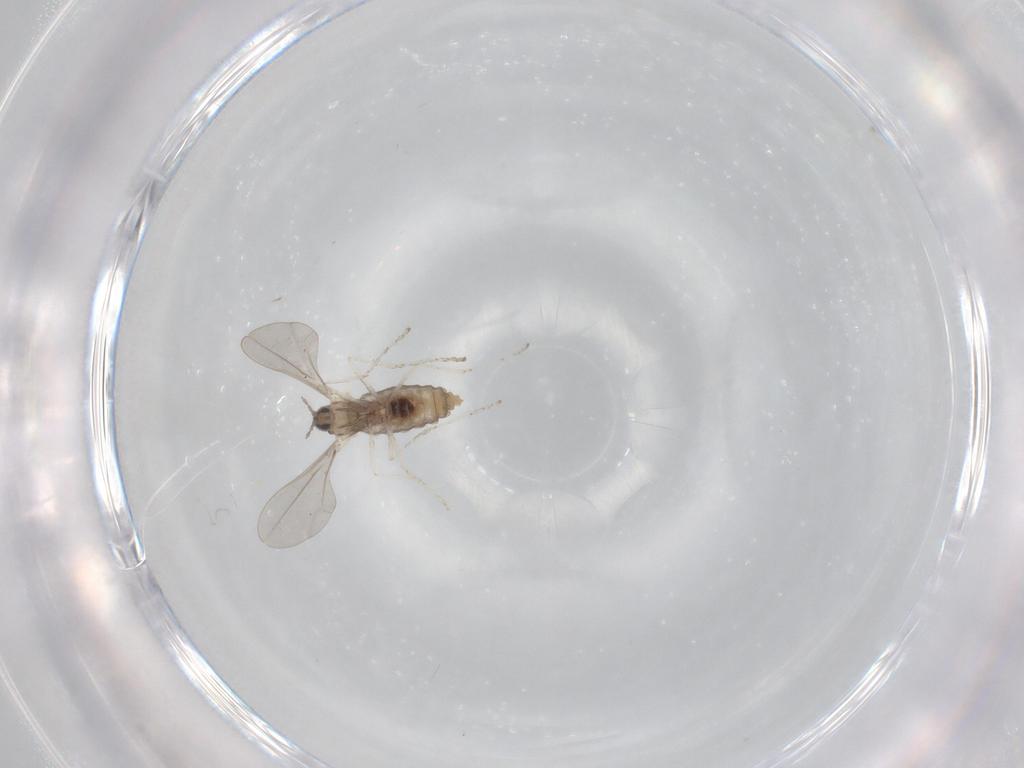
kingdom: Animalia
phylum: Arthropoda
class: Insecta
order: Diptera
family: Cecidomyiidae
